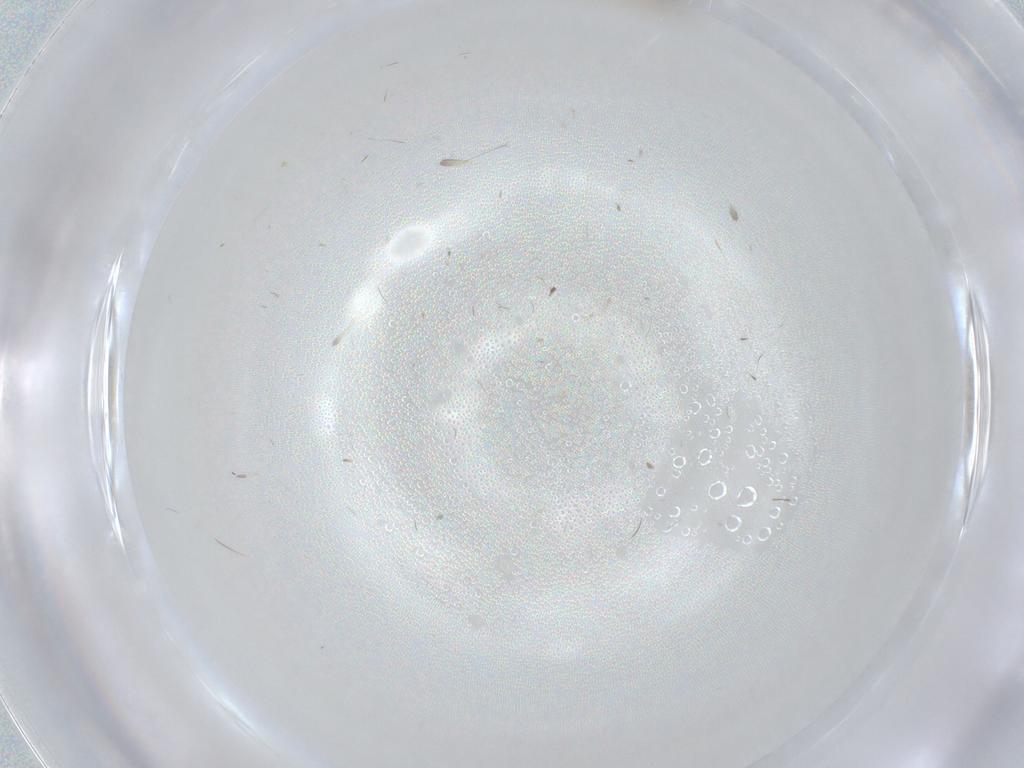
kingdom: Animalia
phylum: Arthropoda
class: Insecta
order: Diptera
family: Cecidomyiidae
